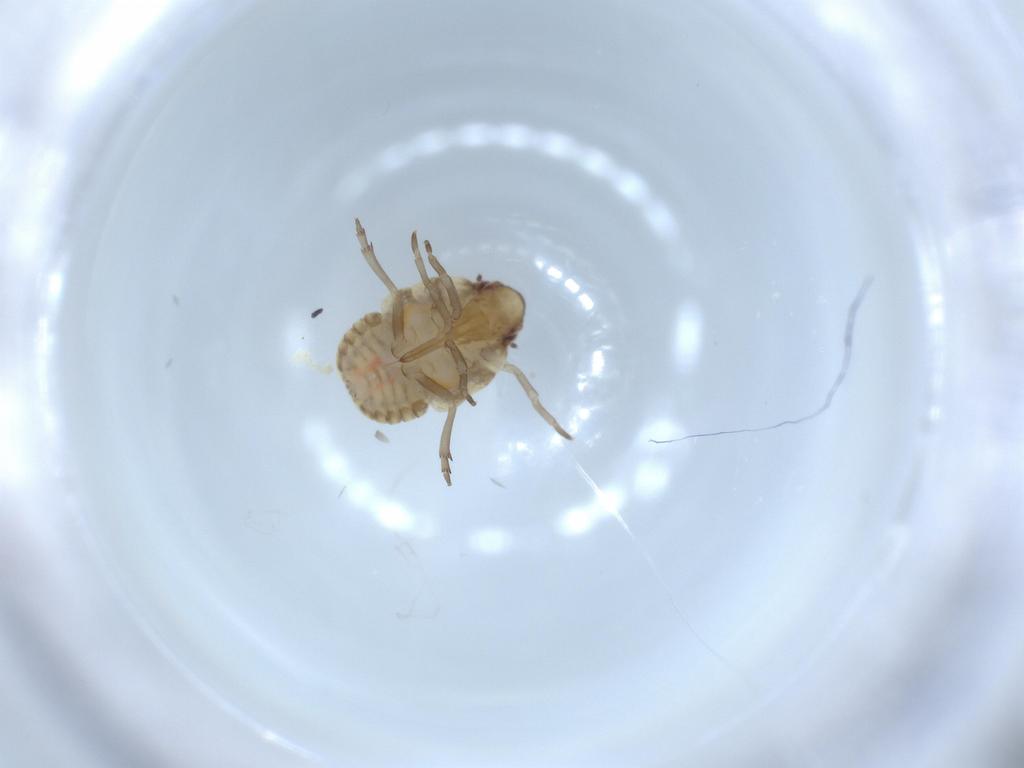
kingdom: Animalia
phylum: Arthropoda
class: Insecta
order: Hemiptera
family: Flatidae
